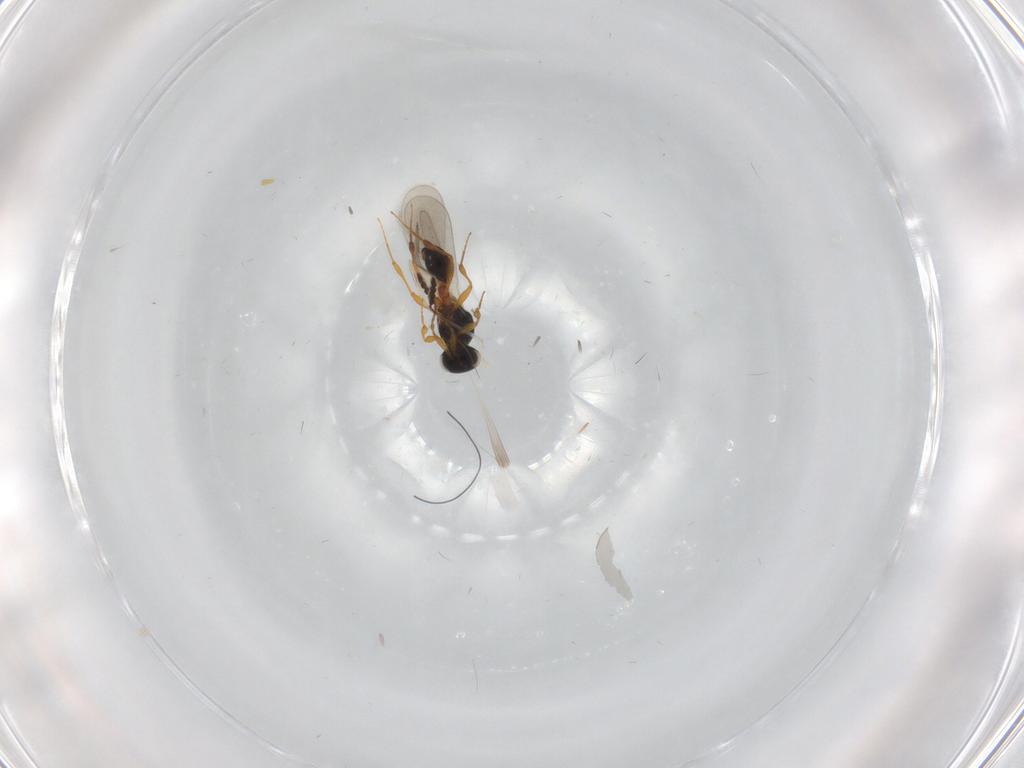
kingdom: Animalia
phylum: Arthropoda
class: Insecta
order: Hymenoptera
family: Platygastridae
